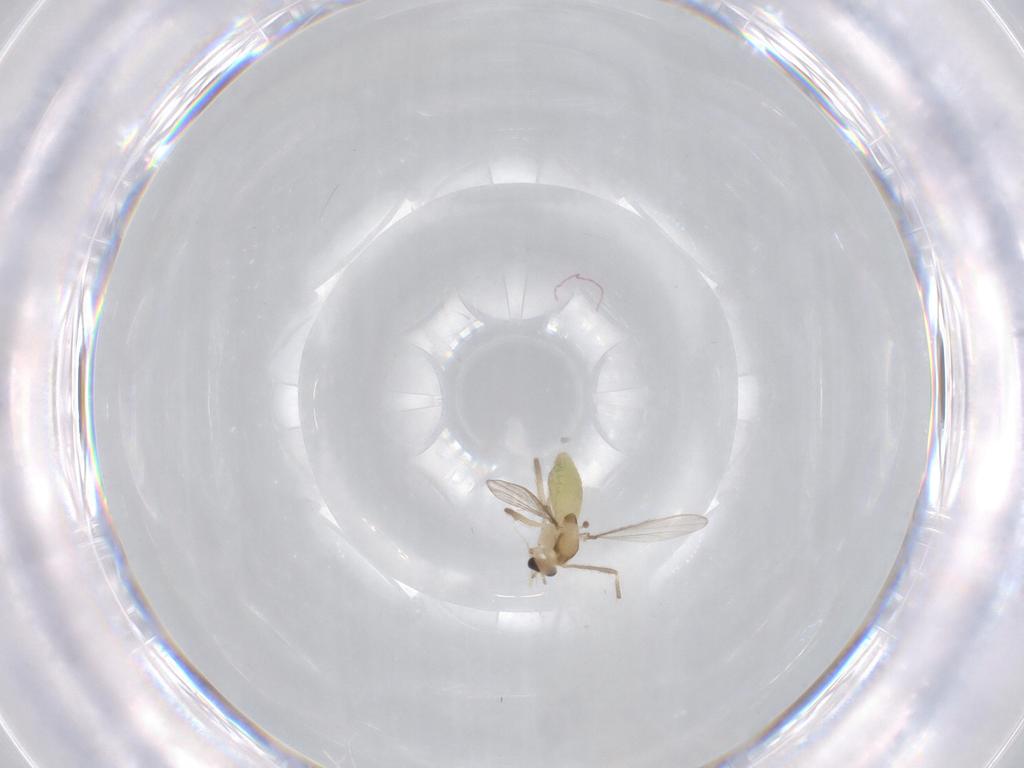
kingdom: Animalia
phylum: Arthropoda
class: Insecta
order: Diptera
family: Chironomidae
